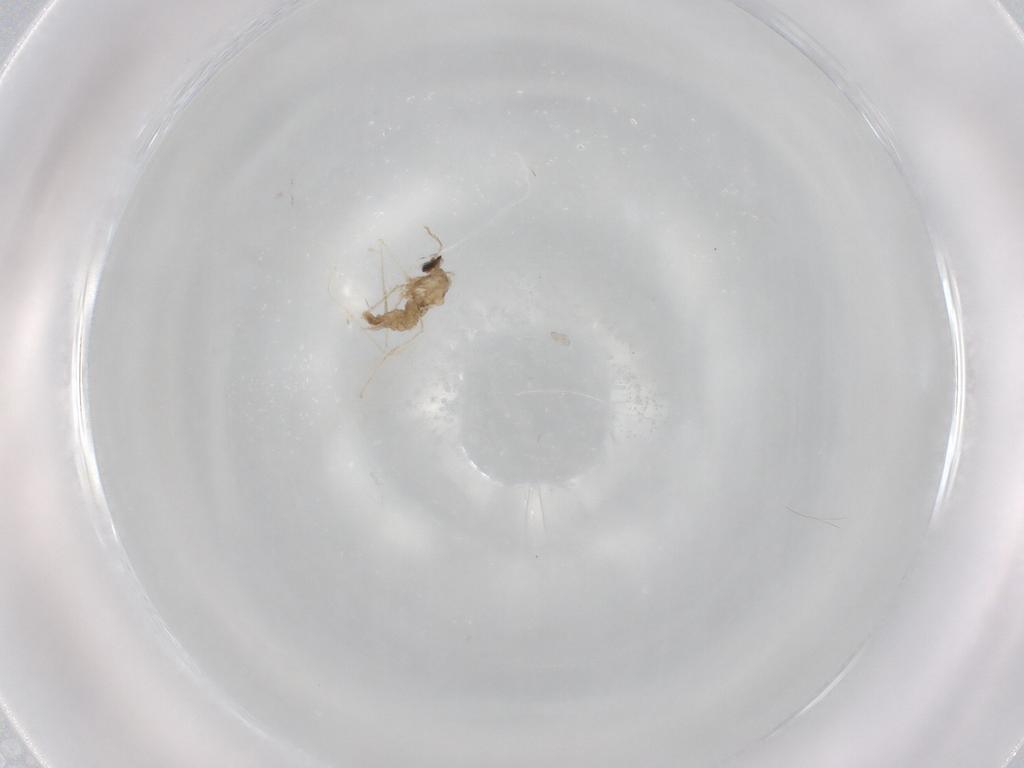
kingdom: Animalia
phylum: Arthropoda
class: Insecta
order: Diptera
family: Cecidomyiidae
